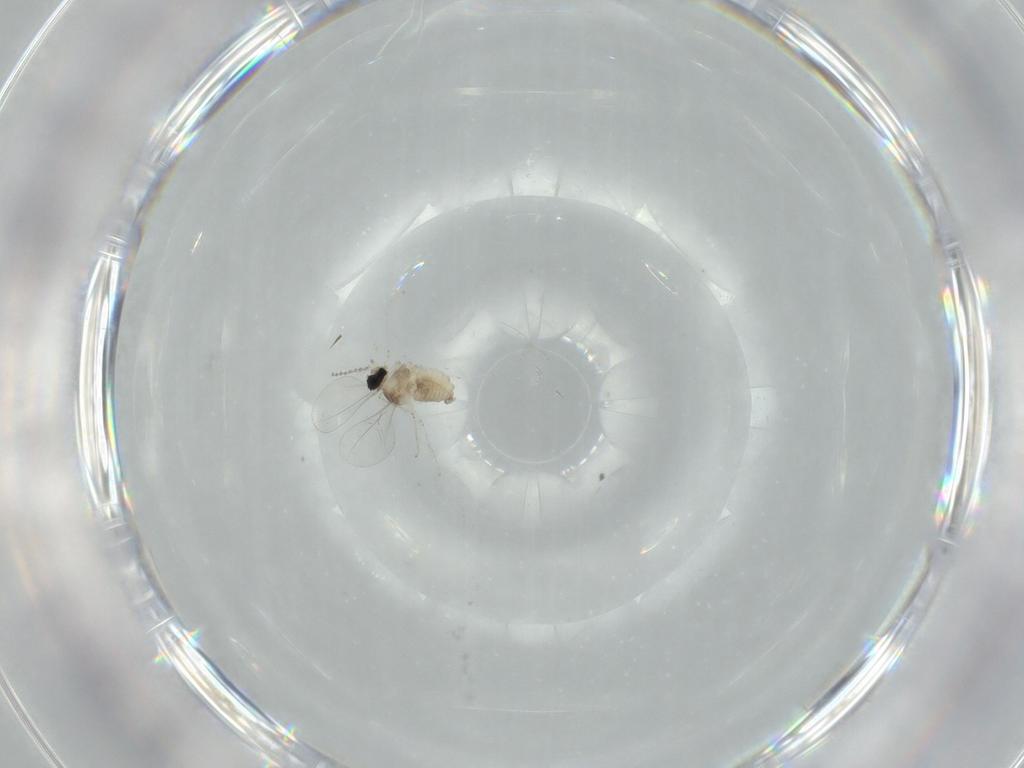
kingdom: Animalia
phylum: Arthropoda
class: Insecta
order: Diptera
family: Cecidomyiidae
